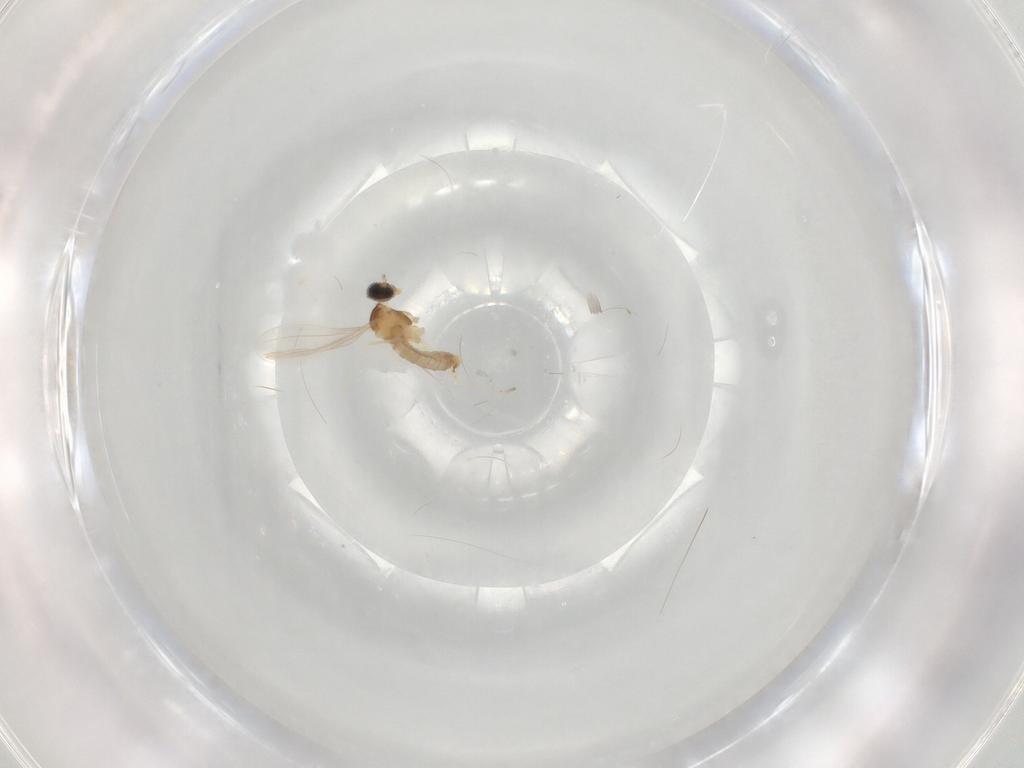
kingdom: Animalia
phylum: Arthropoda
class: Insecta
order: Diptera
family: Cecidomyiidae
